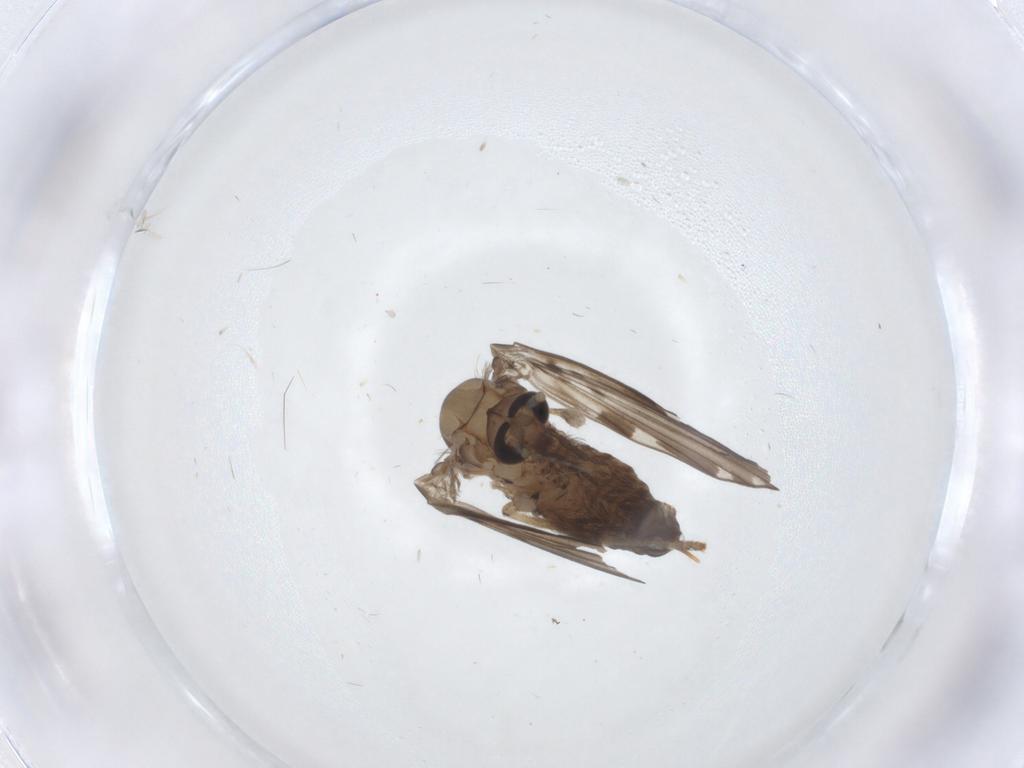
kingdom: Animalia
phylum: Arthropoda
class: Insecta
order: Diptera
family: Psychodidae
